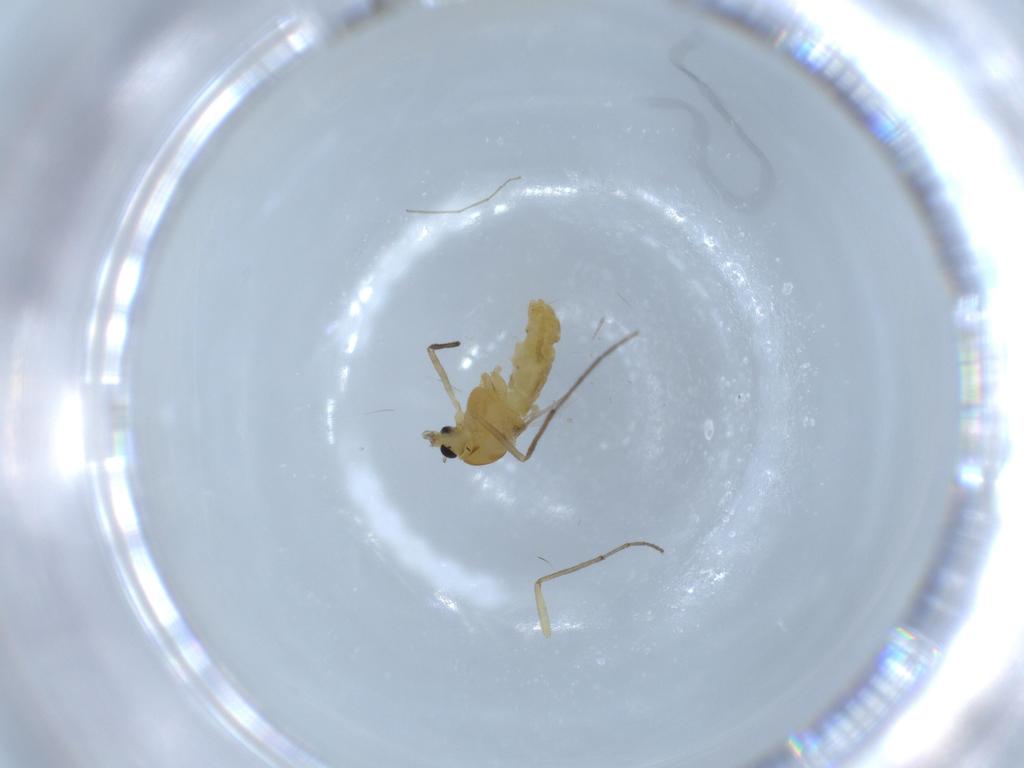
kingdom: Animalia
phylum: Arthropoda
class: Insecta
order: Diptera
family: Chironomidae
